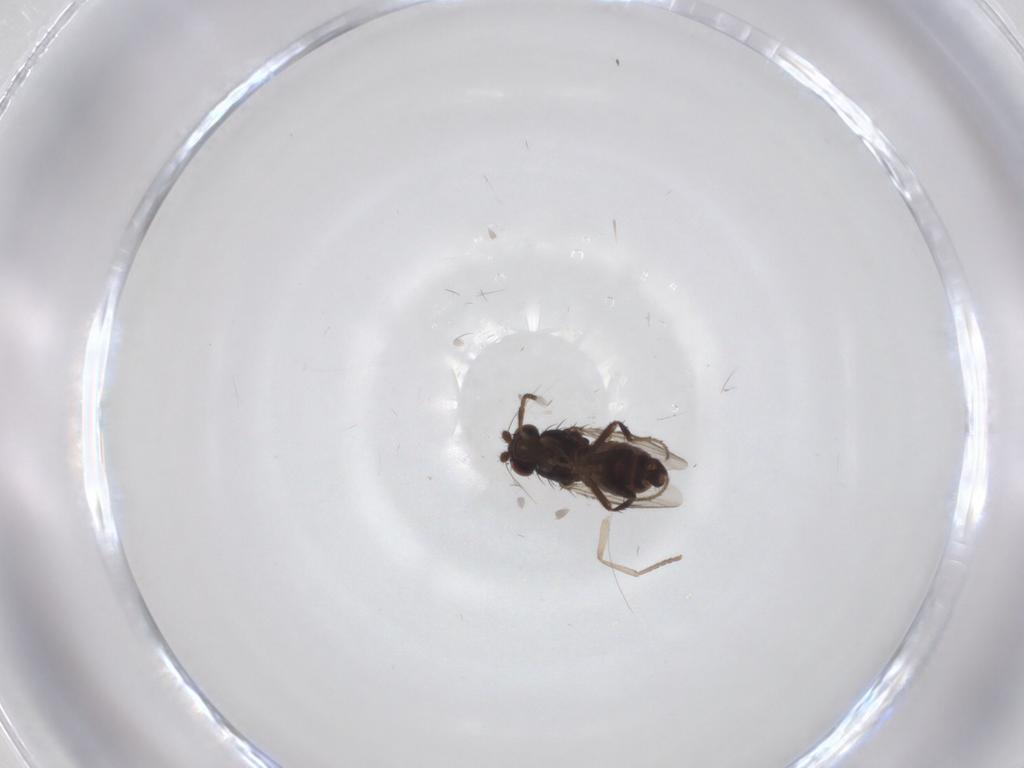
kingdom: Animalia
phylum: Arthropoda
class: Insecta
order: Diptera
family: Sphaeroceridae
